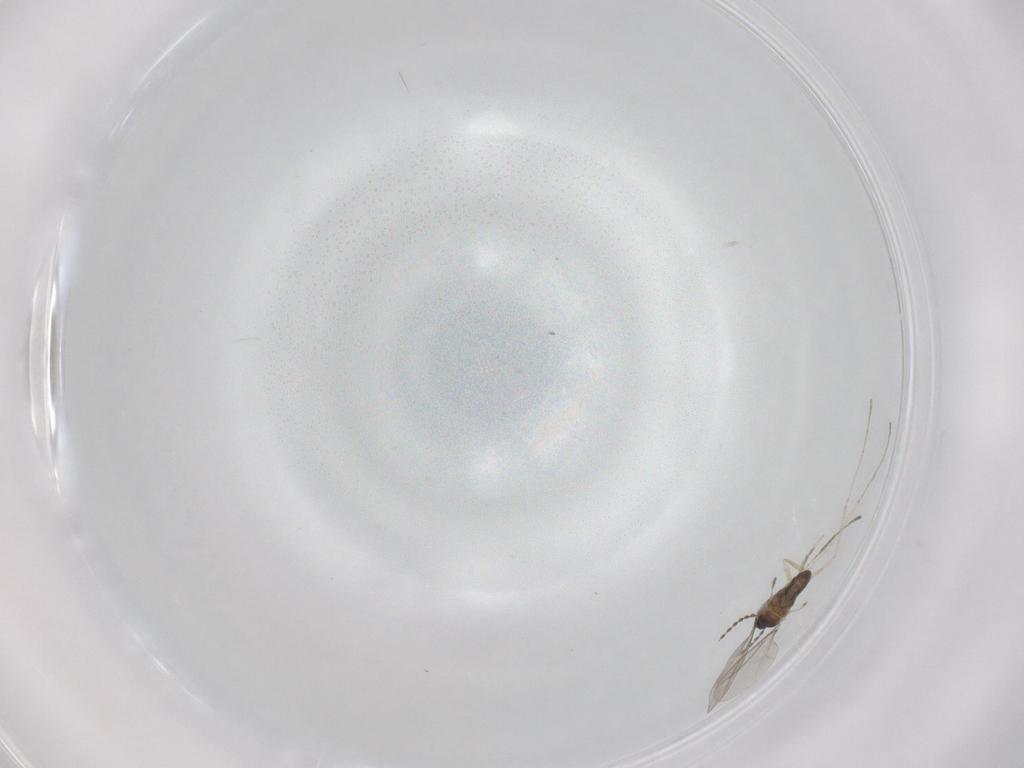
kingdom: Animalia
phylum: Arthropoda
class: Insecta
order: Diptera
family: Cecidomyiidae
